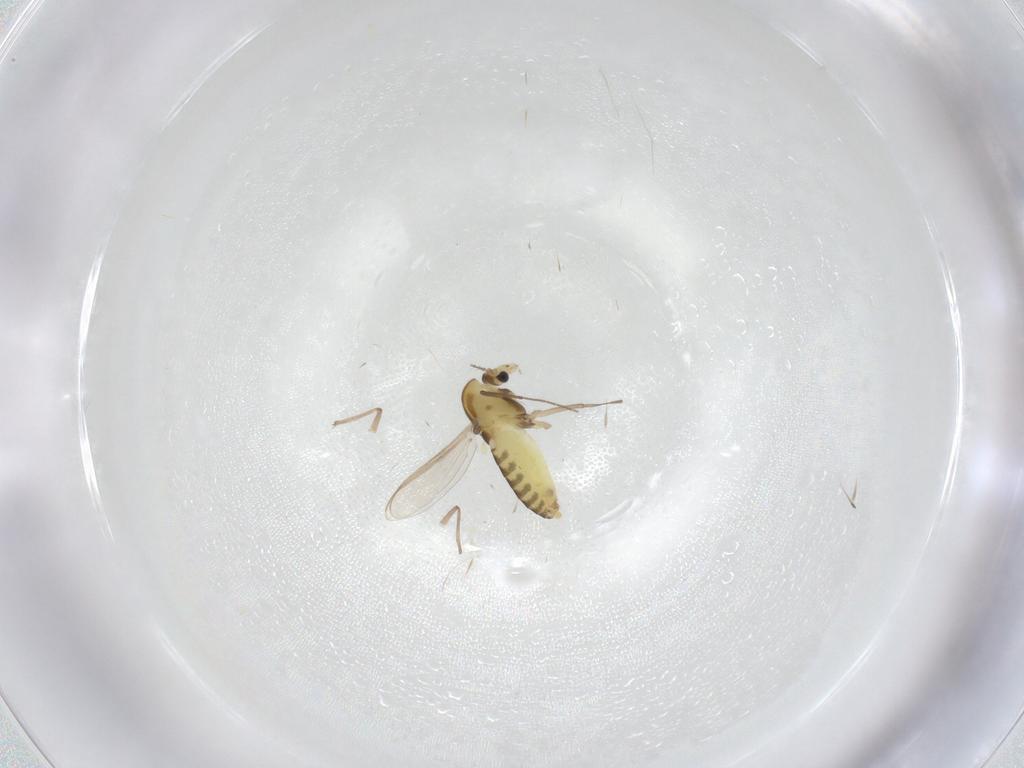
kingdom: Animalia
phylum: Arthropoda
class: Insecta
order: Diptera
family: Chironomidae
